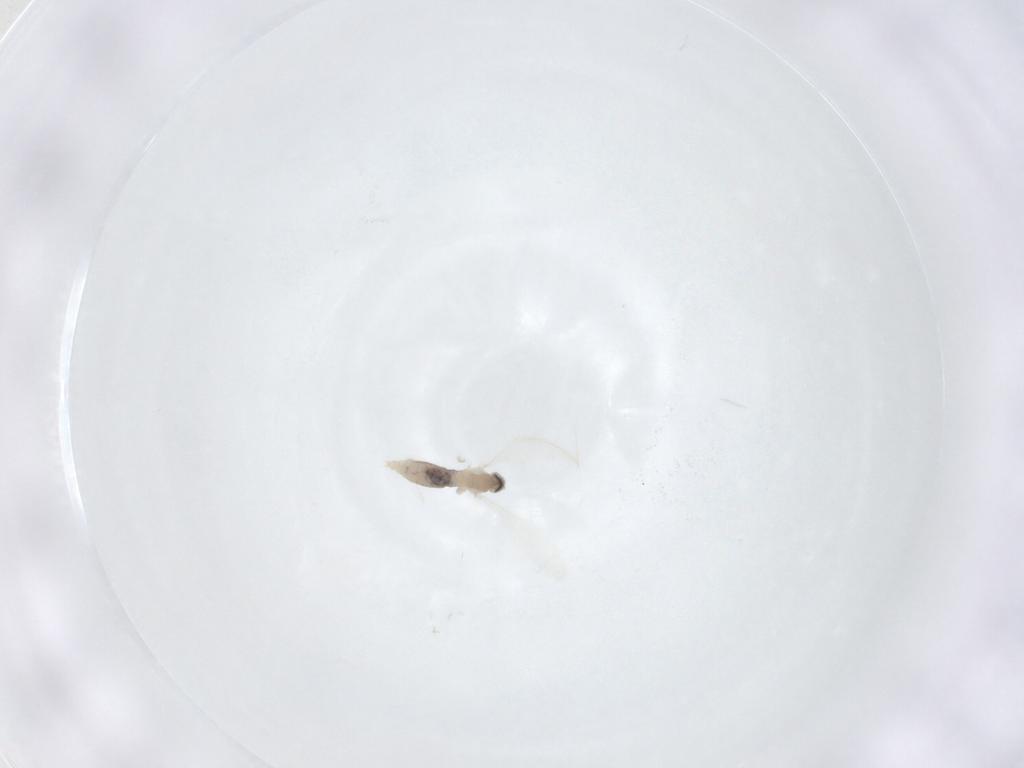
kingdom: Animalia
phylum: Arthropoda
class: Insecta
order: Diptera
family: Cecidomyiidae
